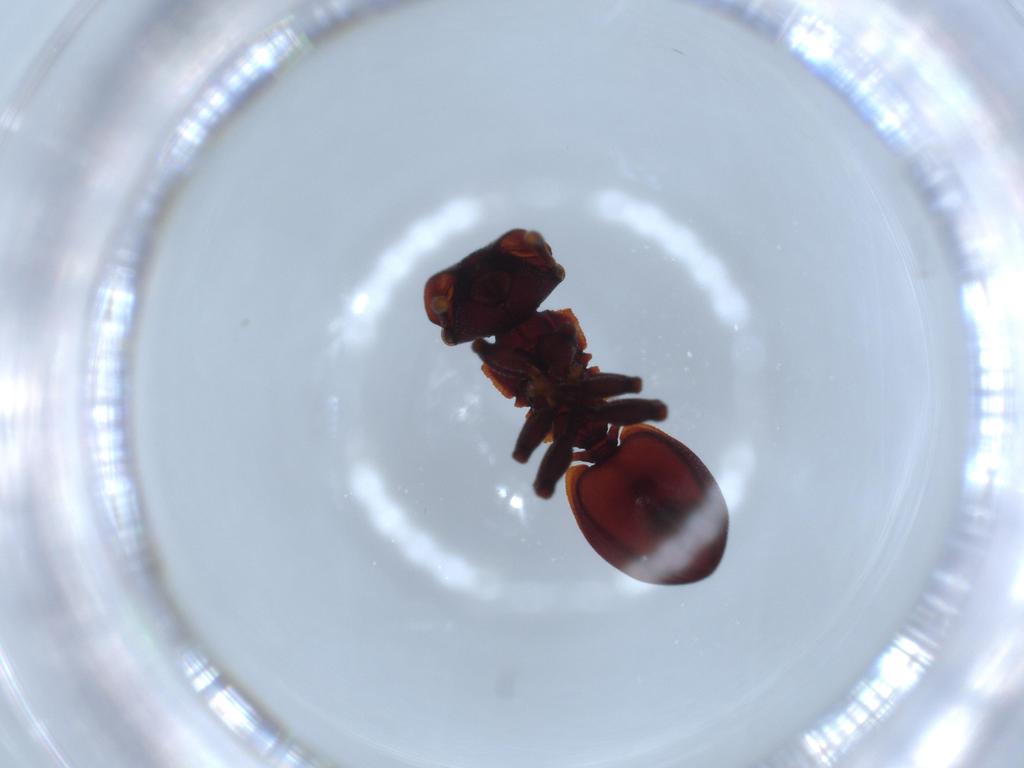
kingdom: Animalia
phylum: Arthropoda
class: Insecta
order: Hymenoptera
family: Formicidae
